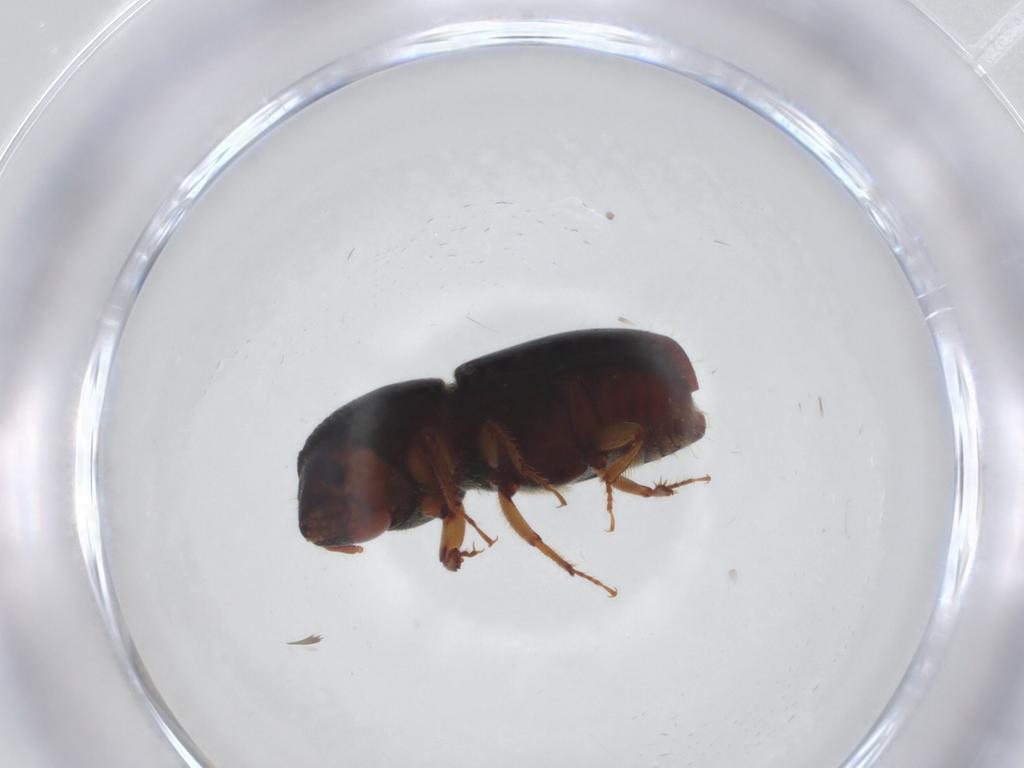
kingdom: Animalia
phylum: Arthropoda
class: Insecta
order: Coleoptera
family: Curculionidae
